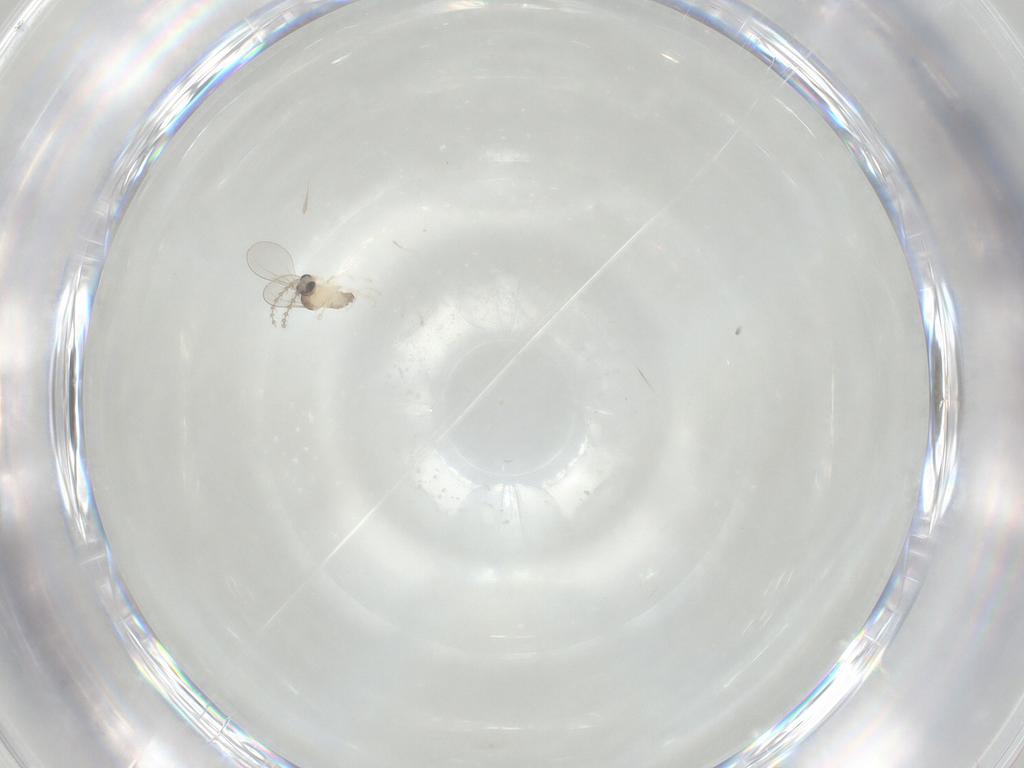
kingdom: Animalia
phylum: Arthropoda
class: Insecta
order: Diptera
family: Cecidomyiidae
